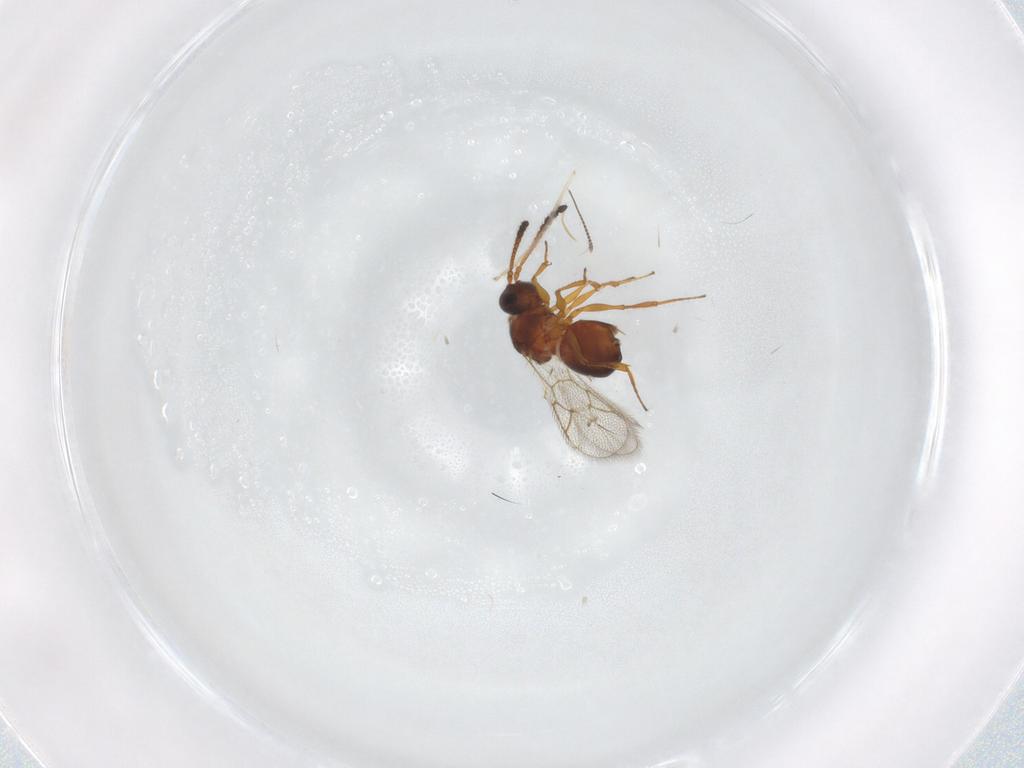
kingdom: Animalia
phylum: Arthropoda
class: Insecta
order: Hymenoptera
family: Figitidae
